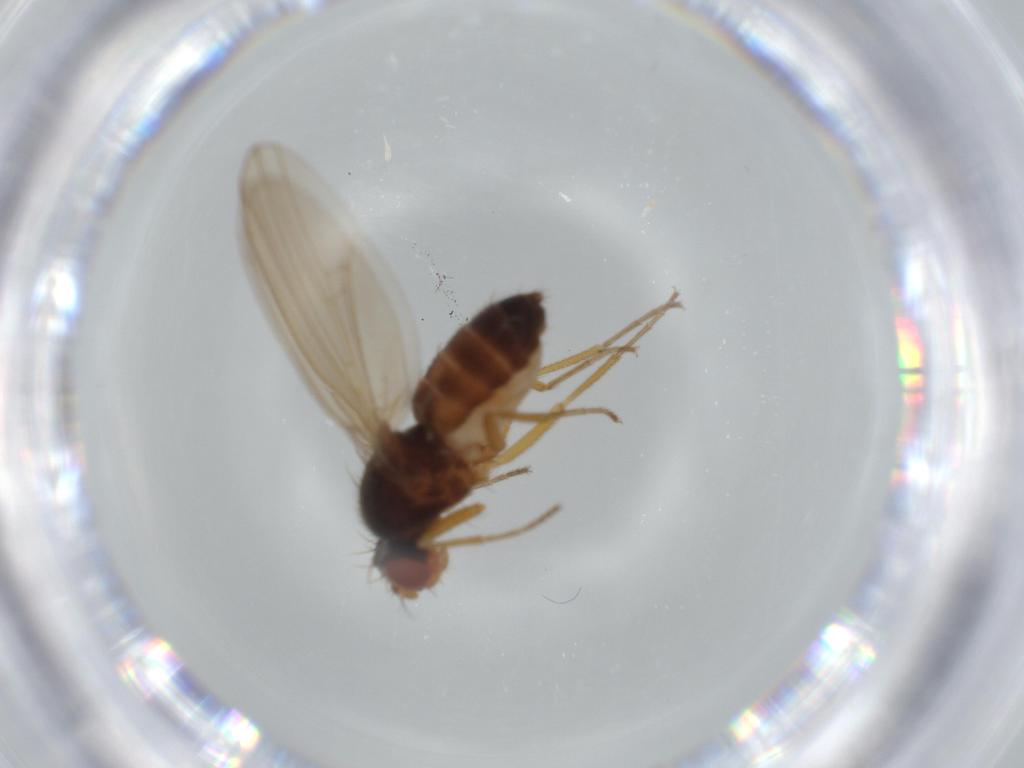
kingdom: Animalia
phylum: Arthropoda
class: Insecta
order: Diptera
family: Drosophilidae
